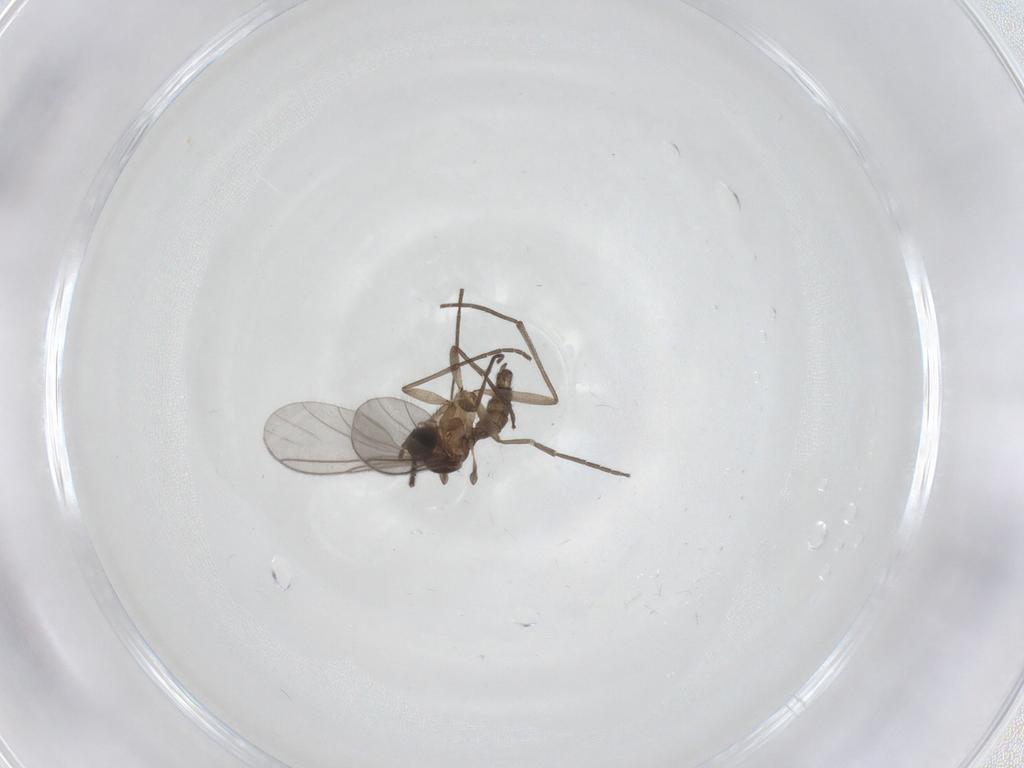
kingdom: Animalia
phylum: Arthropoda
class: Insecta
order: Diptera
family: Sciaridae
